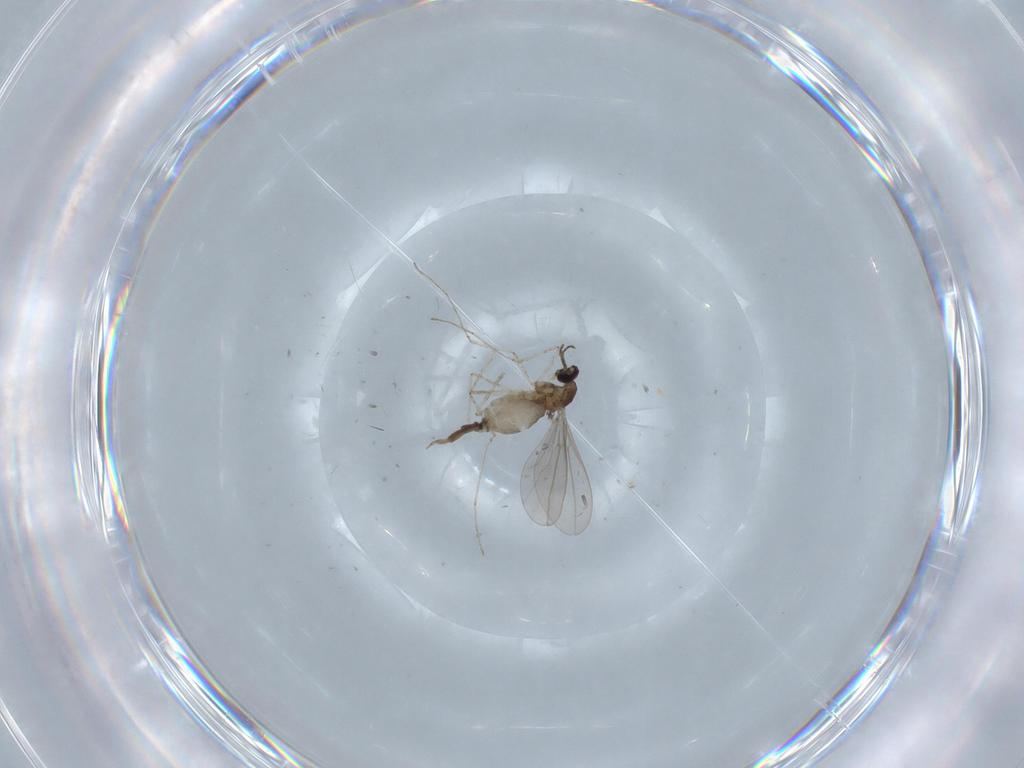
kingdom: Animalia
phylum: Arthropoda
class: Insecta
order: Diptera
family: Cecidomyiidae
